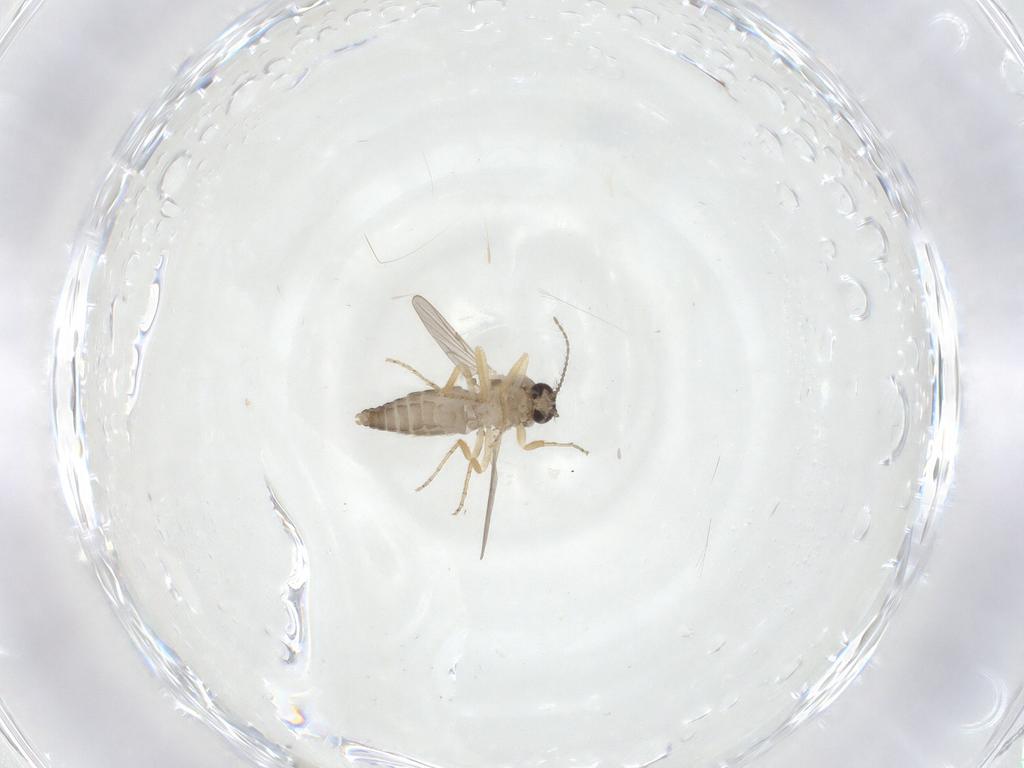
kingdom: Animalia
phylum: Arthropoda
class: Insecta
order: Diptera
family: Ceratopogonidae
